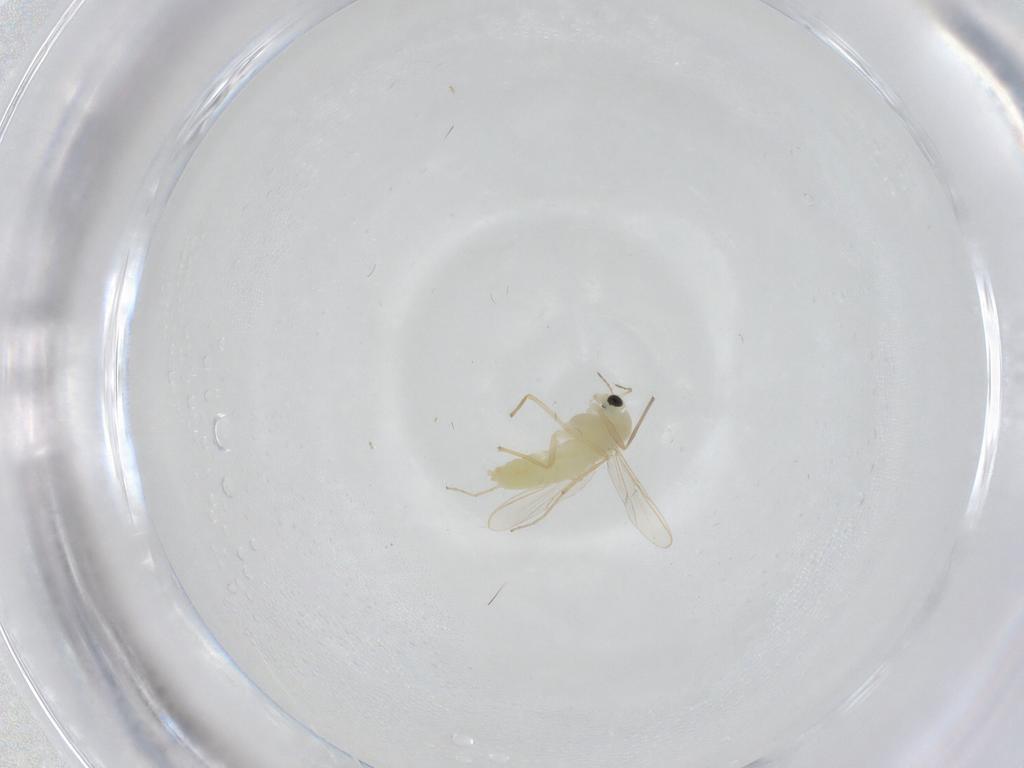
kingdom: Animalia
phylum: Arthropoda
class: Insecta
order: Diptera
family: Chironomidae
